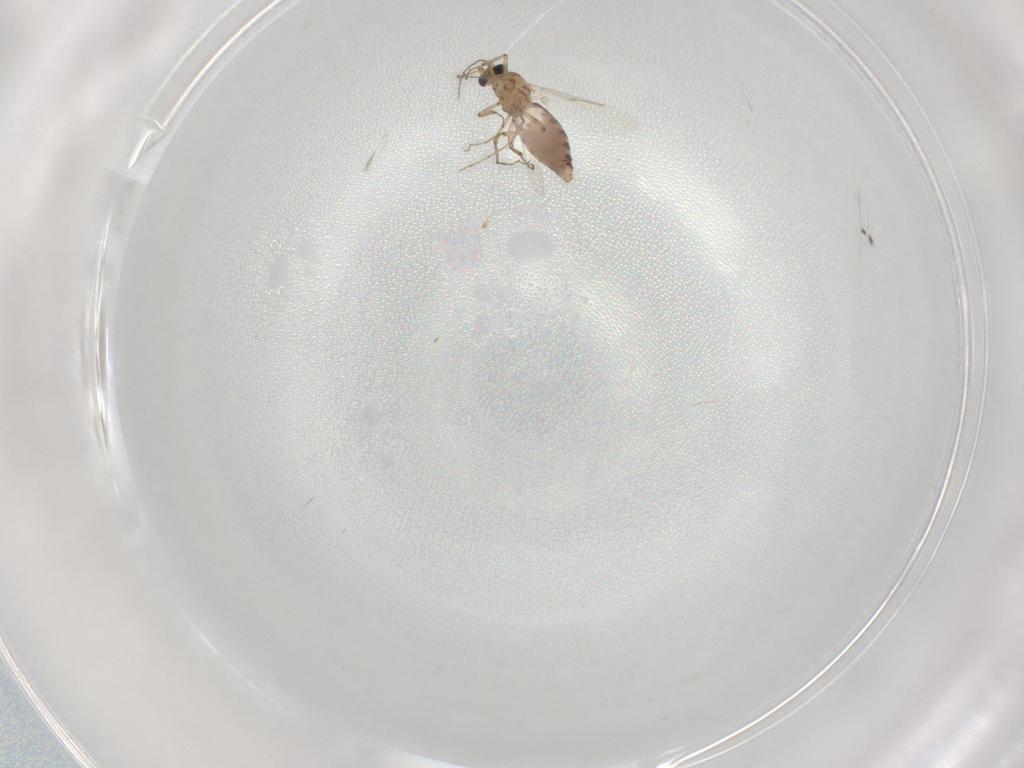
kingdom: Animalia
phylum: Arthropoda
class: Insecta
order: Diptera
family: Ceratopogonidae
